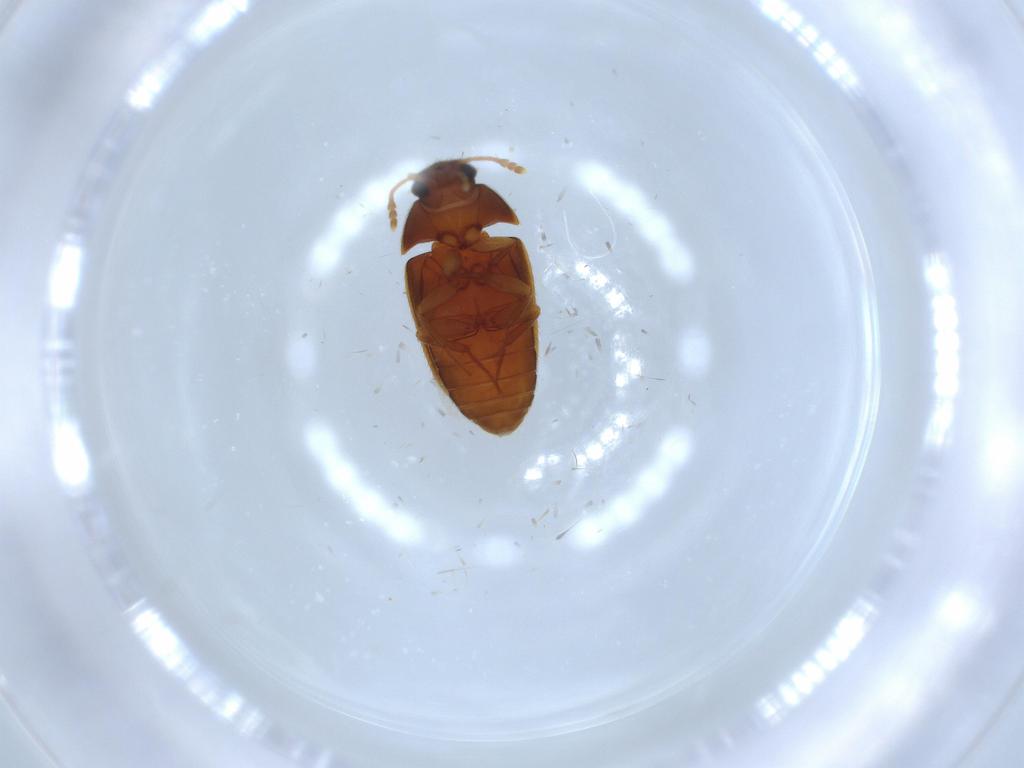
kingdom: Animalia
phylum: Arthropoda
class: Insecta
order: Coleoptera
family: Mycetophagidae
